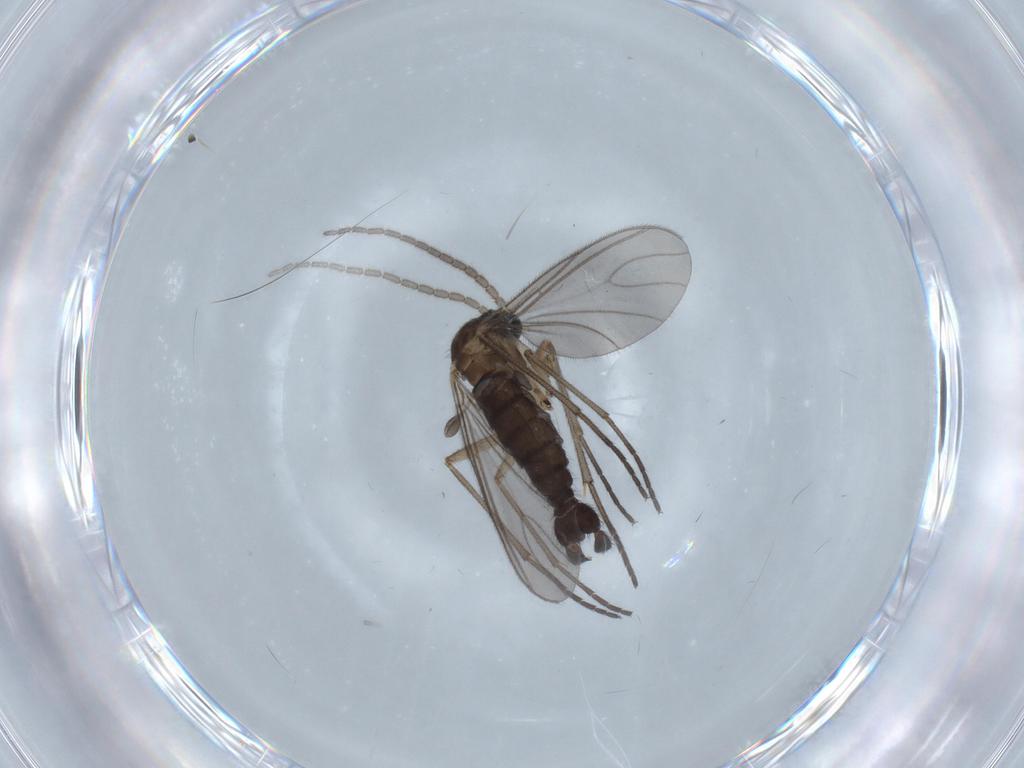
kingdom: Animalia
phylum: Arthropoda
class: Insecta
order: Diptera
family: Sciaridae
